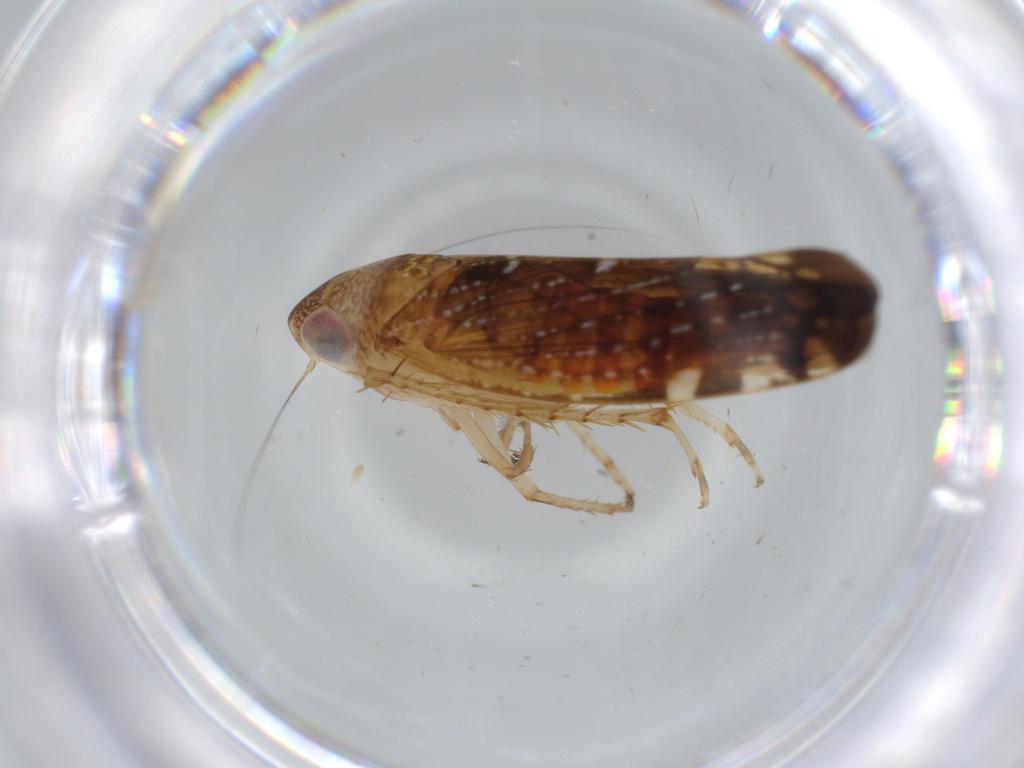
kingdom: Animalia
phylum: Arthropoda
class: Insecta
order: Hemiptera
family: Cicadellidae
